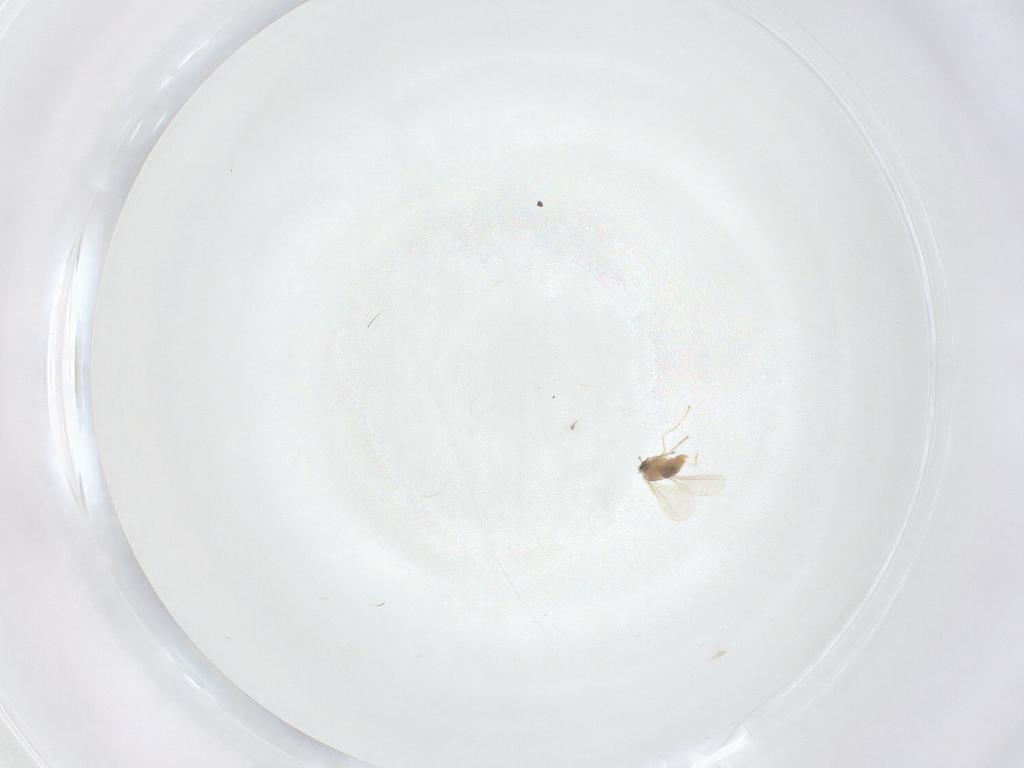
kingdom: Animalia
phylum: Arthropoda
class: Insecta
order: Diptera
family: Cecidomyiidae
